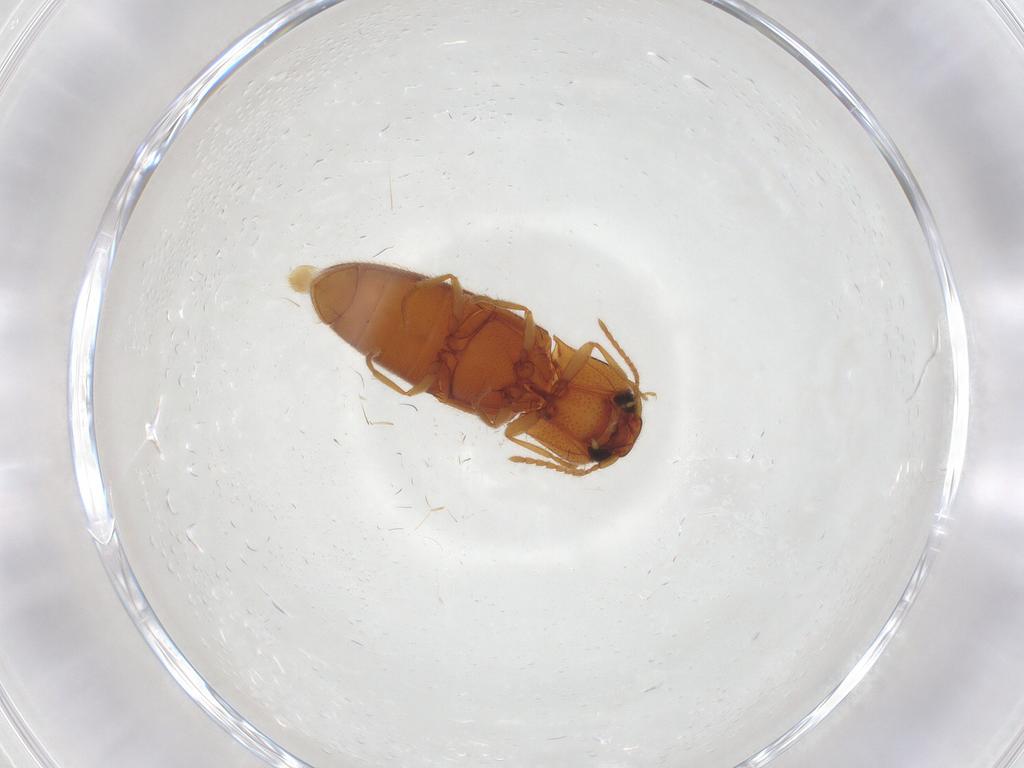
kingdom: Animalia
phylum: Arthropoda
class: Insecta
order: Coleoptera
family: Elateridae
